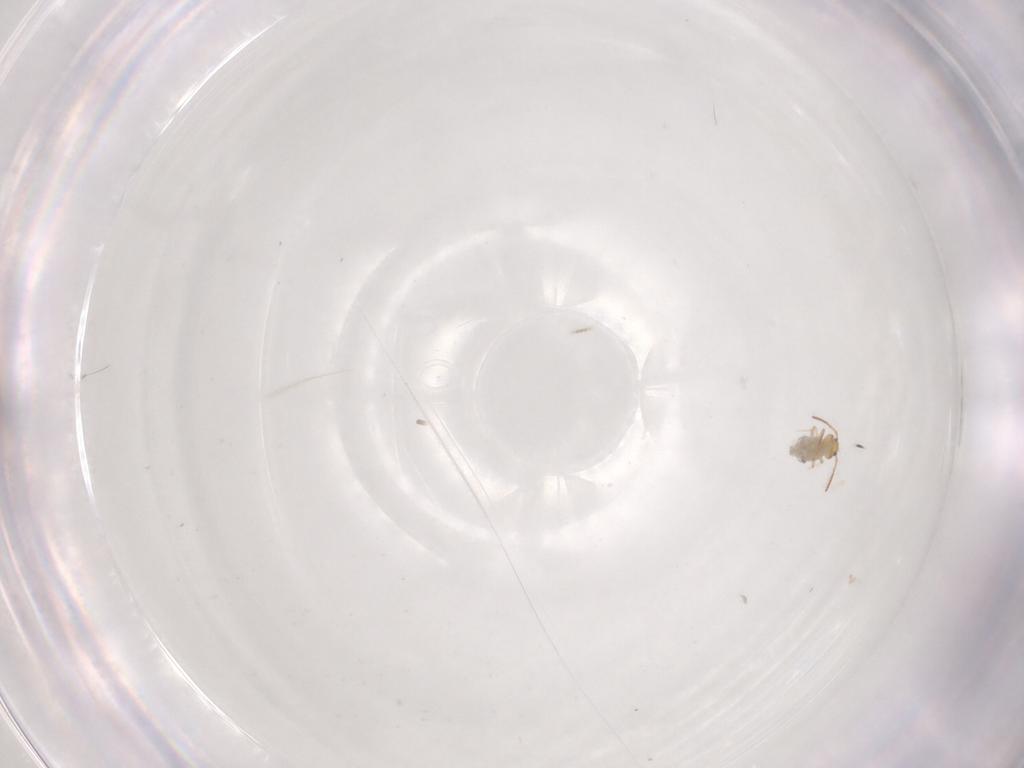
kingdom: Animalia
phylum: Arthropoda
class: Collembola
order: Symphypleona
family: Bourletiellidae
